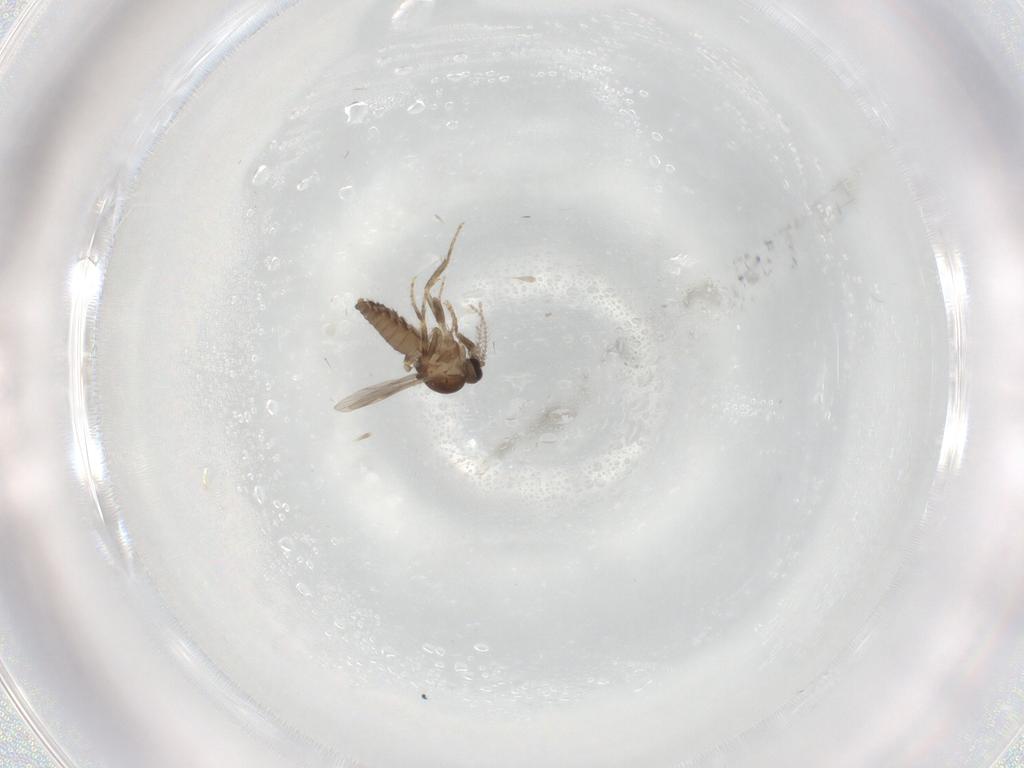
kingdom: Animalia
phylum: Arthropoda
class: Insecta
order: Diptera
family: Ceratopogonidae
